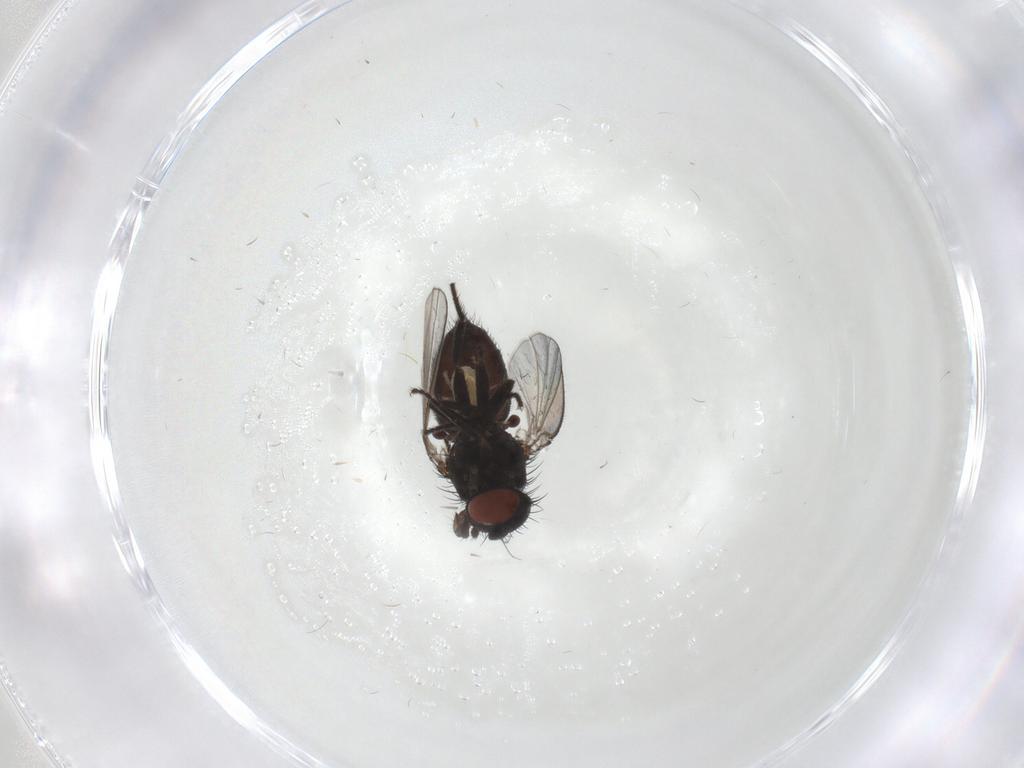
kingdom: Animalia
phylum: Arthropoda
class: Insecta
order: Diptera
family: Milichiidae
